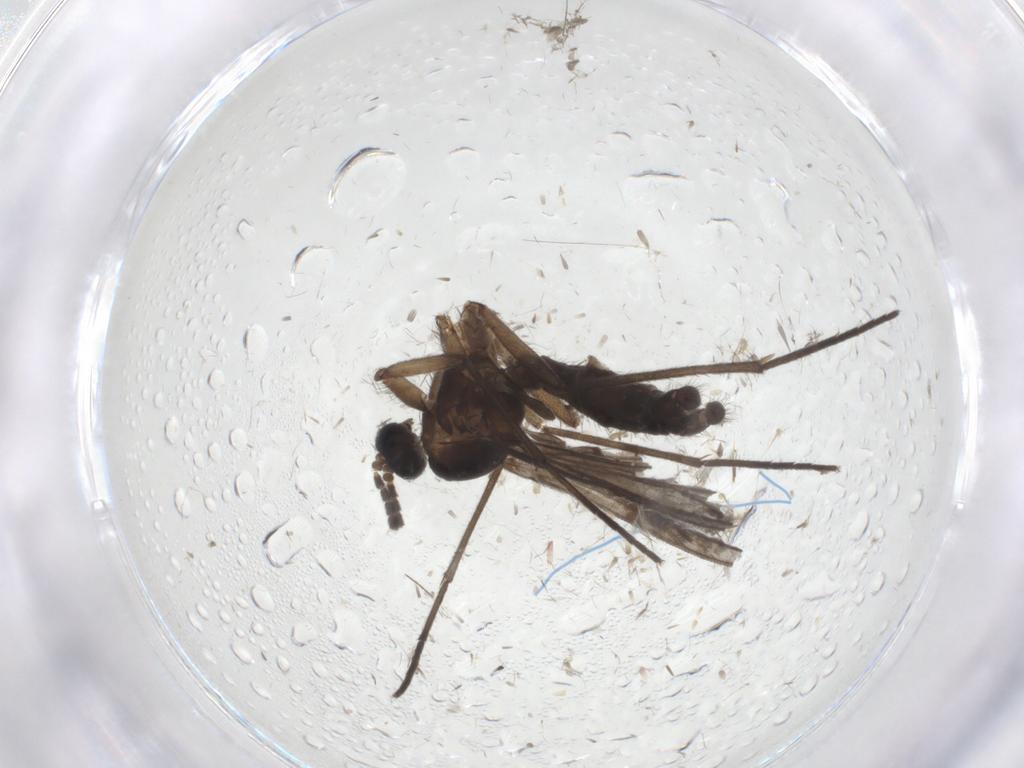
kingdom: Animalia
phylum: Arthropoda
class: Insecta
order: Diptera
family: Sciaridae
